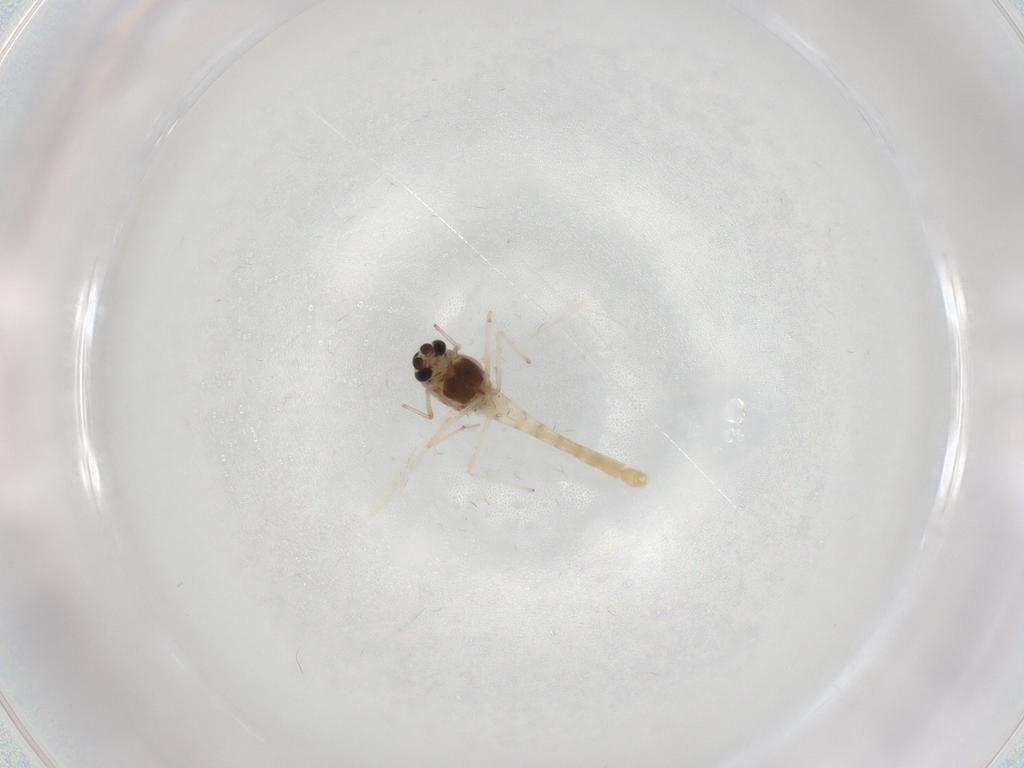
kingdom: Animalia
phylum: Arthropoda
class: Insecta
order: Diptera
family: Chironomidae
